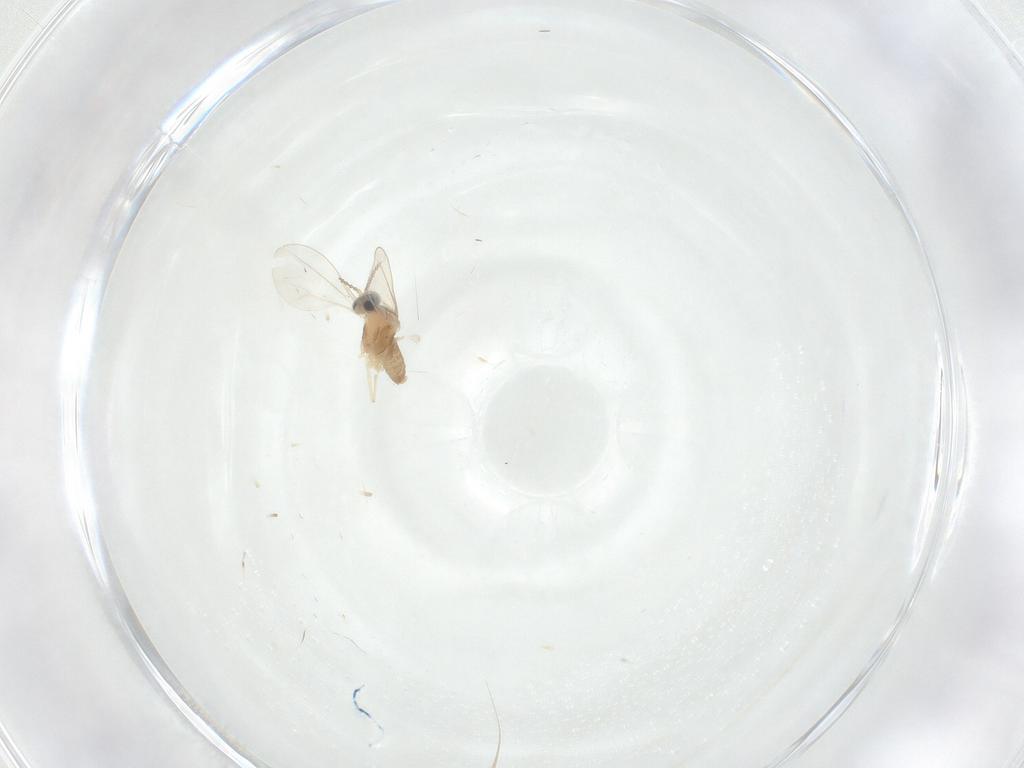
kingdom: Animalia
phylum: Arthropoda
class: Insecta
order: Diptera
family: Cecidomyiidae
